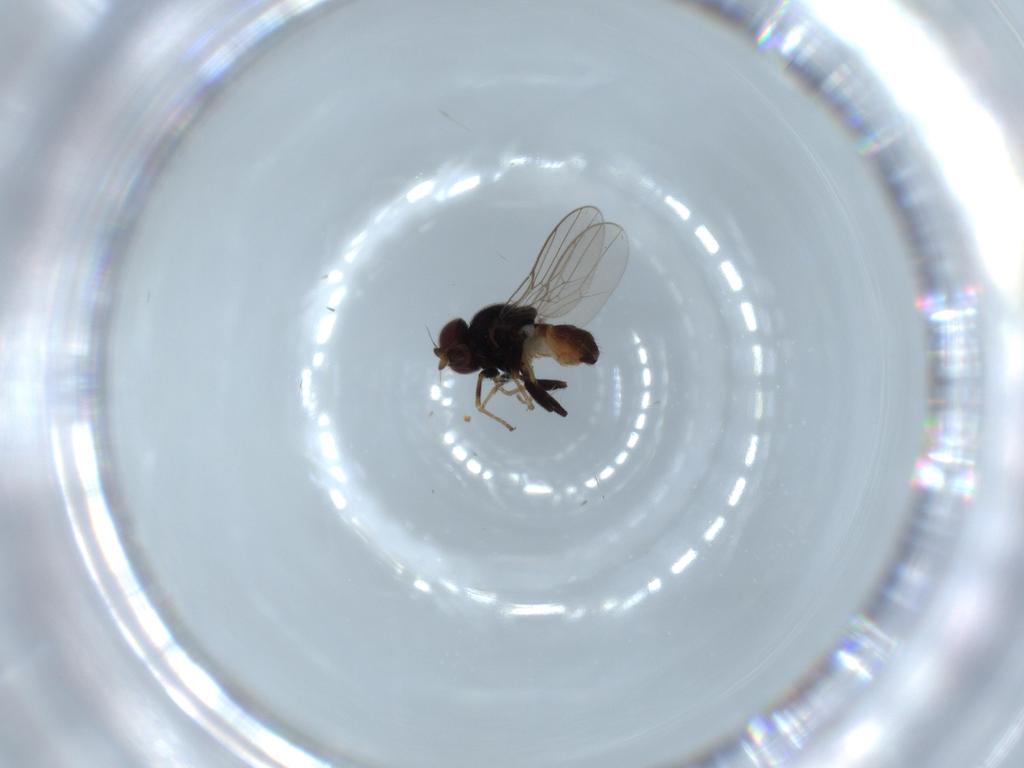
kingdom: Animalia
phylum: Arthropoda
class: Insecta
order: Diptera
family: Chloropidae
